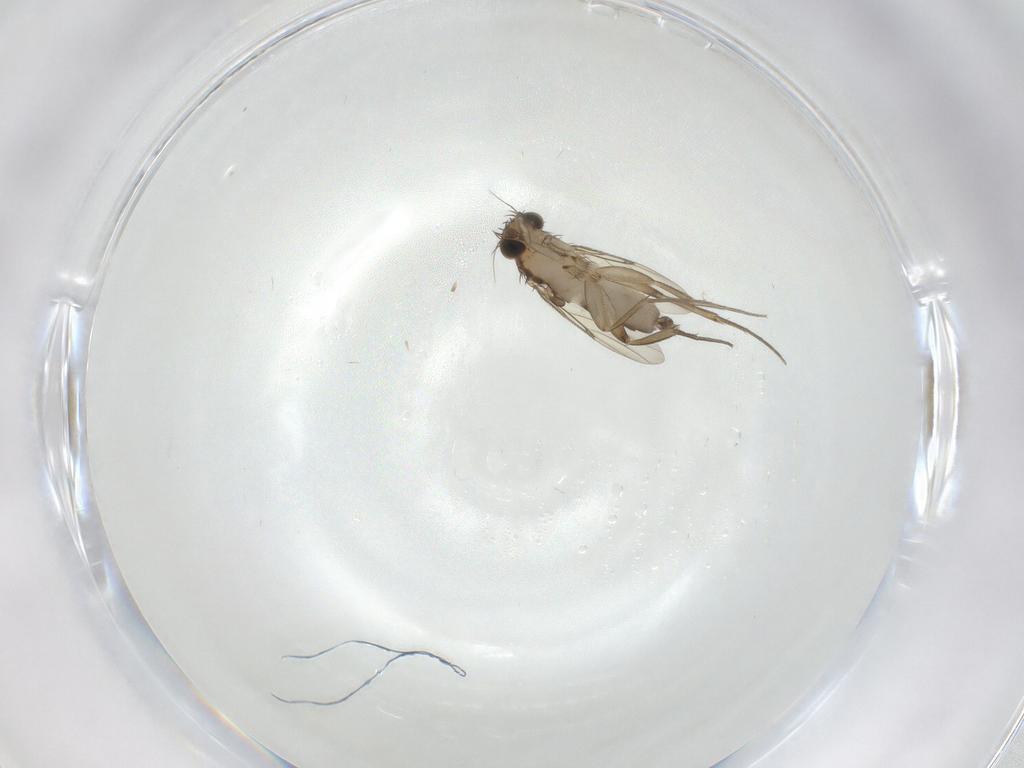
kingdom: Animalia
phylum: Arthropoda
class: Insecta
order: Diptera
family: Phoridae
